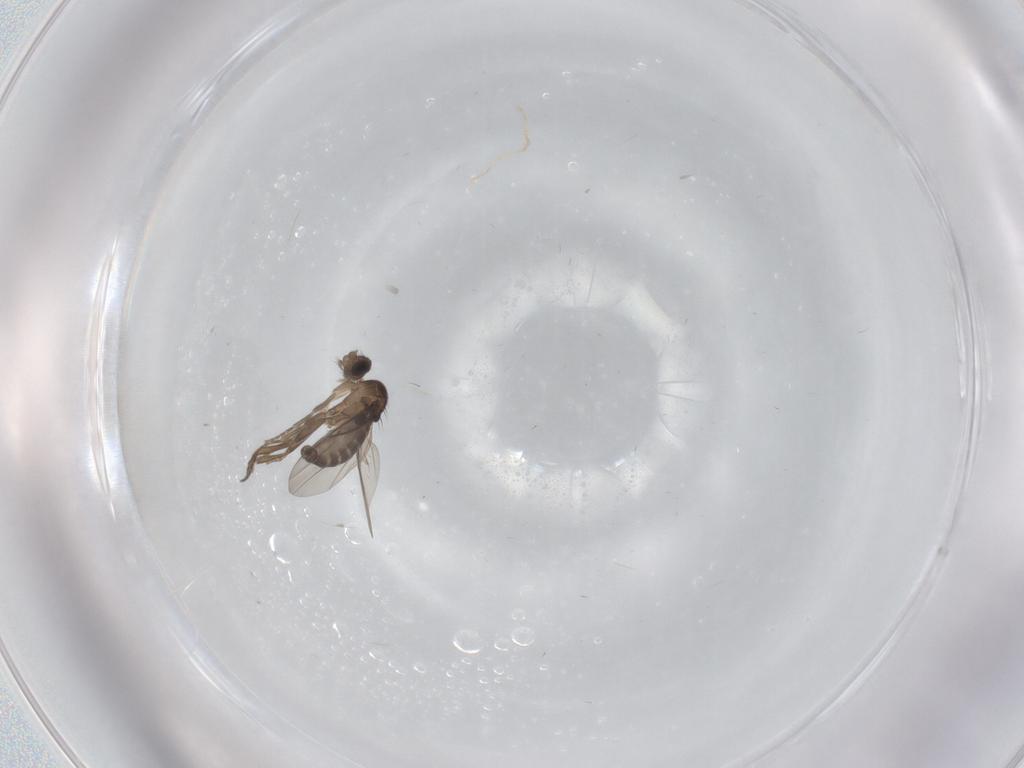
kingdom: Animalia
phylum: Arthropoda
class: Insecta
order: Diptera
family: Phoridae
